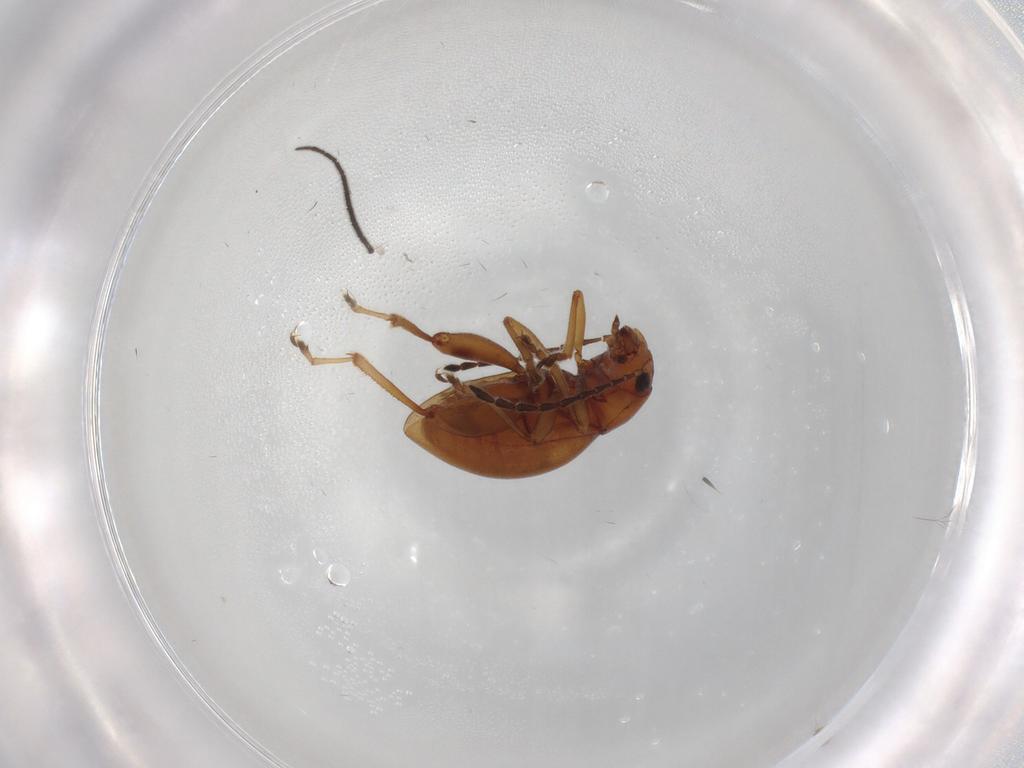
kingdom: Animalia
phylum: Arthropoda
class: Insecta
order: Coleoptera
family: Chrysomelidae
